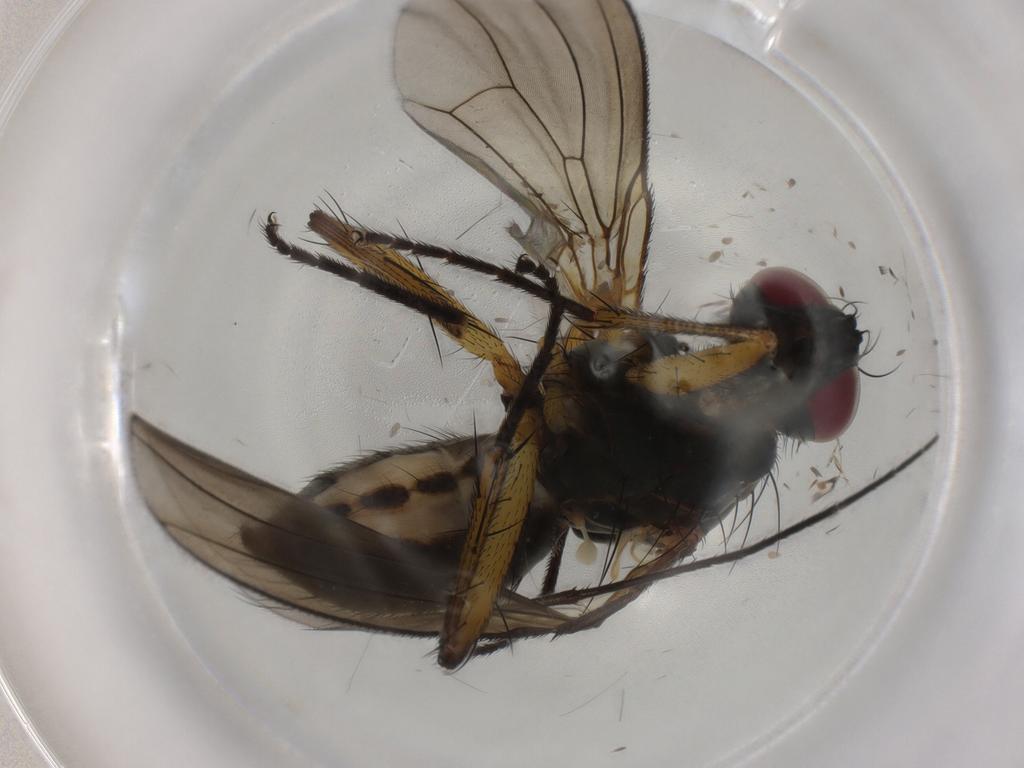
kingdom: Animalia
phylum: Arthropoda
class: Insecta
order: Diptera
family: Muscidae
